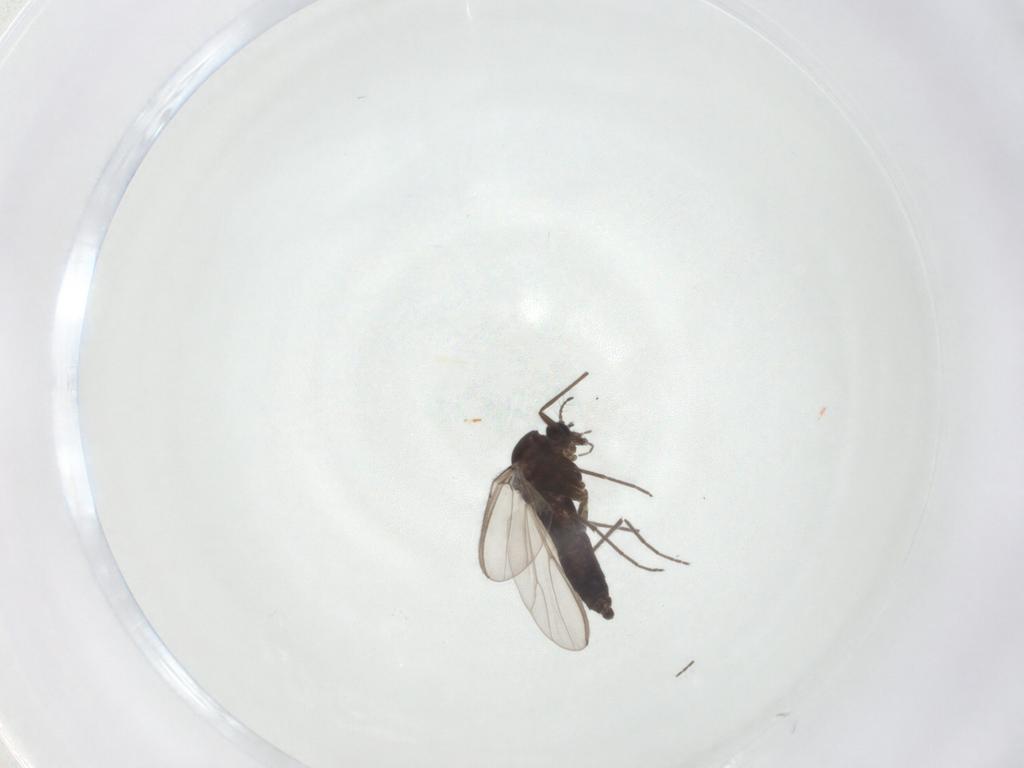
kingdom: Animalia
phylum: Arthropoda
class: Insecta
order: Diptera
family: Chironomidae
